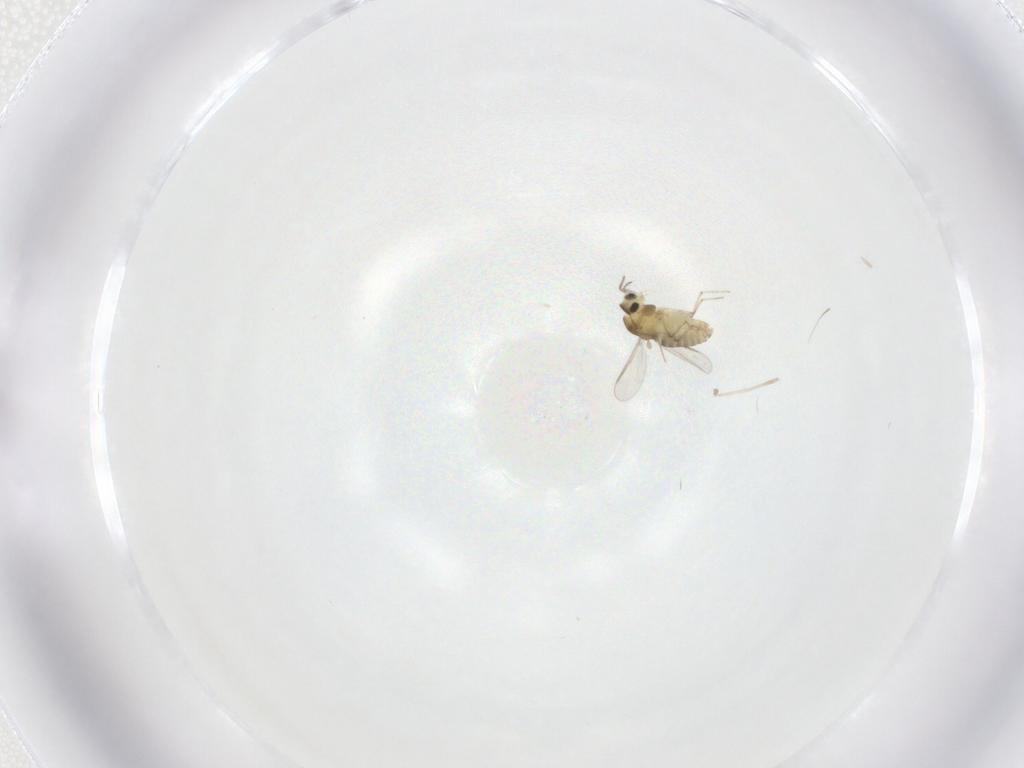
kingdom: Animalia
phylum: Arthropoda
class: Insecta
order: Diptera
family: Chironomidae
